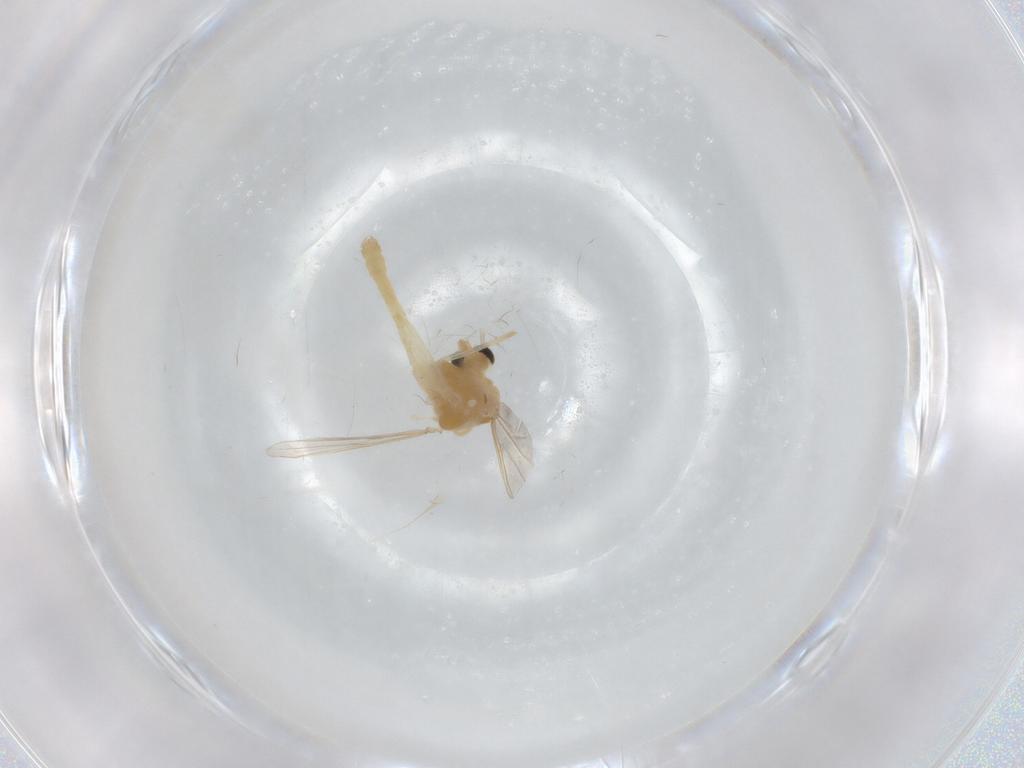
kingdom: Animalia
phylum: Arthropoda
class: Insecta
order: Diptera
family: Chironomidae
